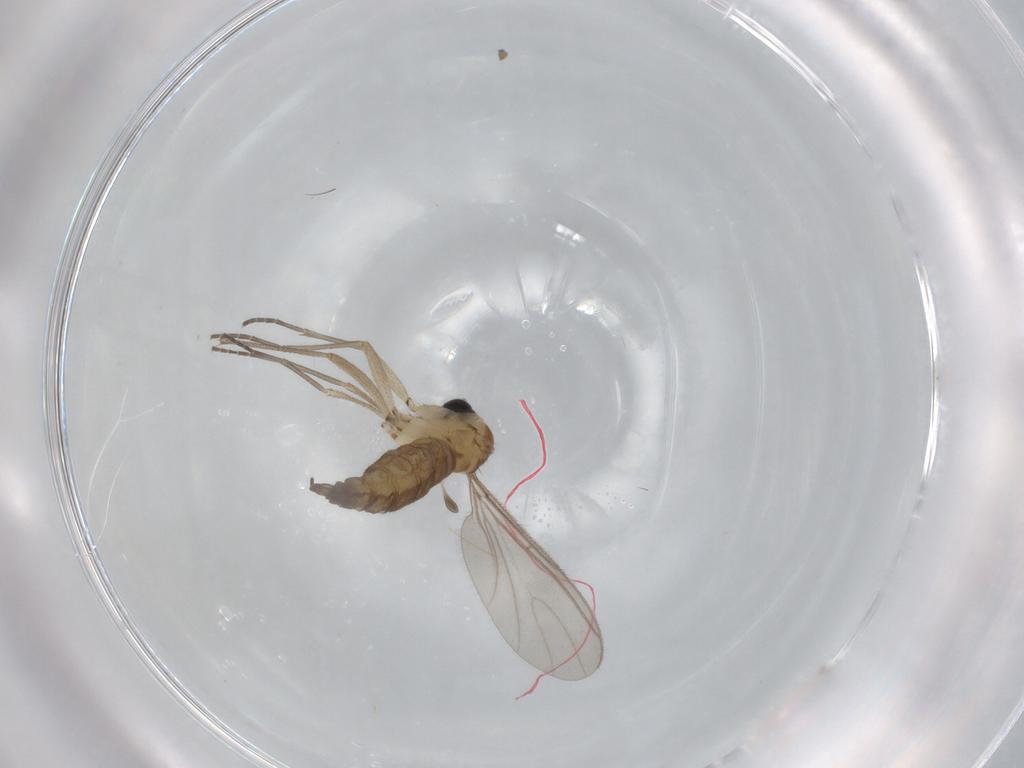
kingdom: Animalia
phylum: Arthropoda
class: Insecta
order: Diptera
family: Sciaridae
